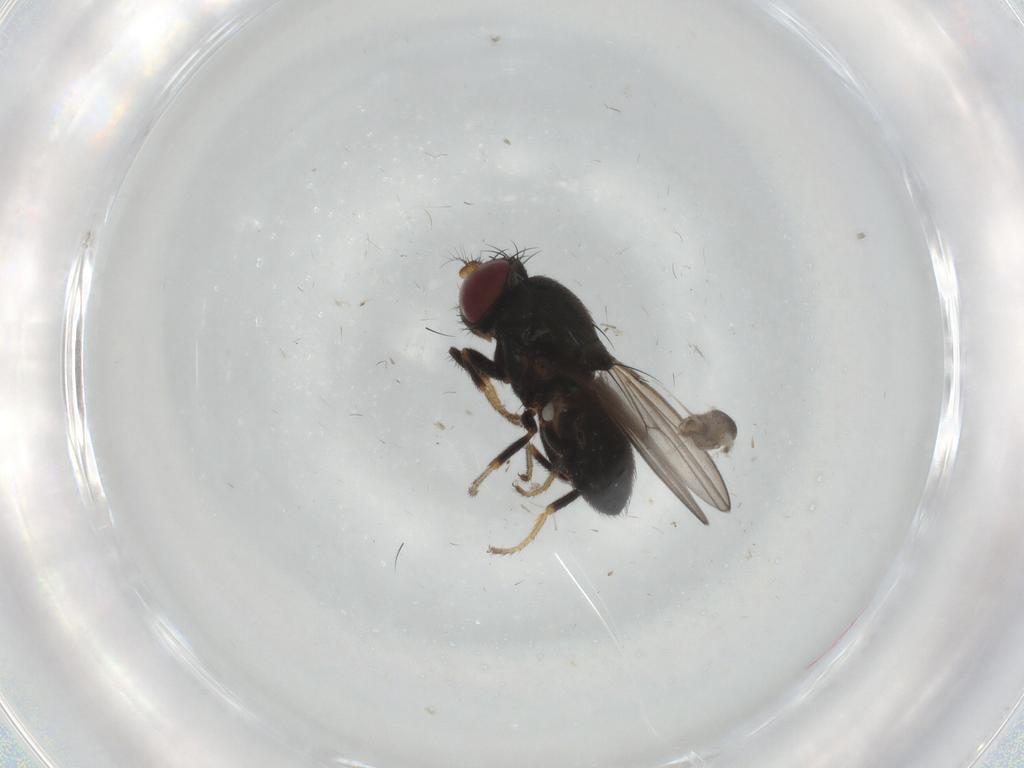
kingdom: Animalia
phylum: Arthropoda
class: Insecta
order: Diptera
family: Ephydridae
